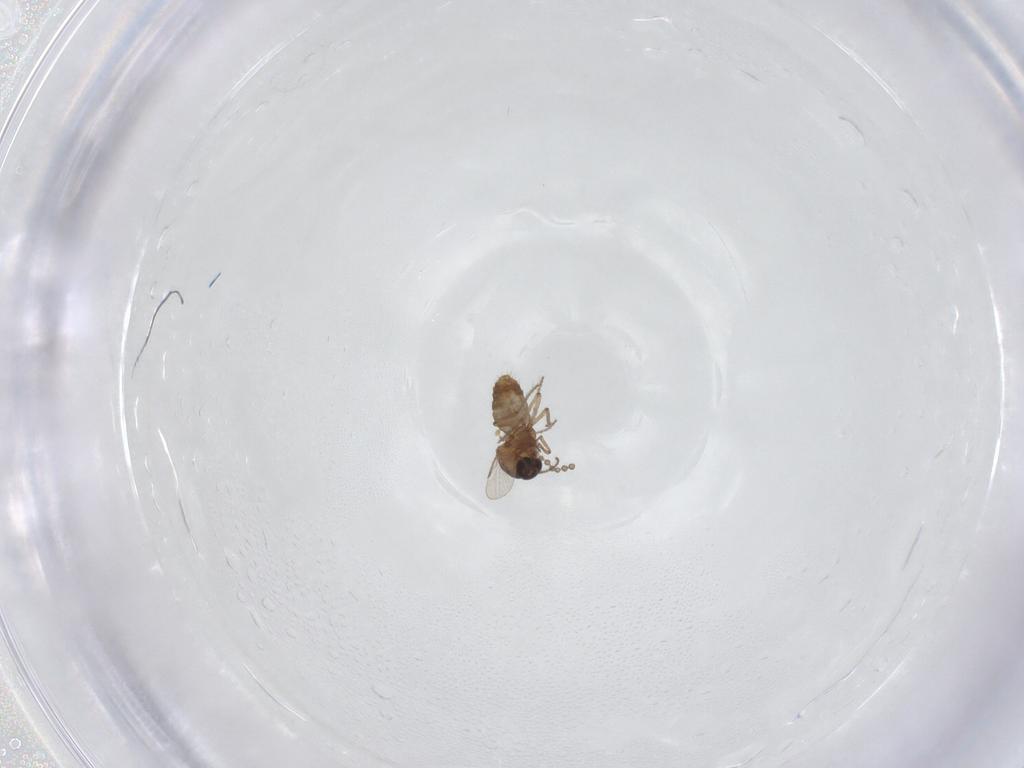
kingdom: Animalia
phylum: Arthropoda
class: Insecta
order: Diptera
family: Ceratopogonidae
